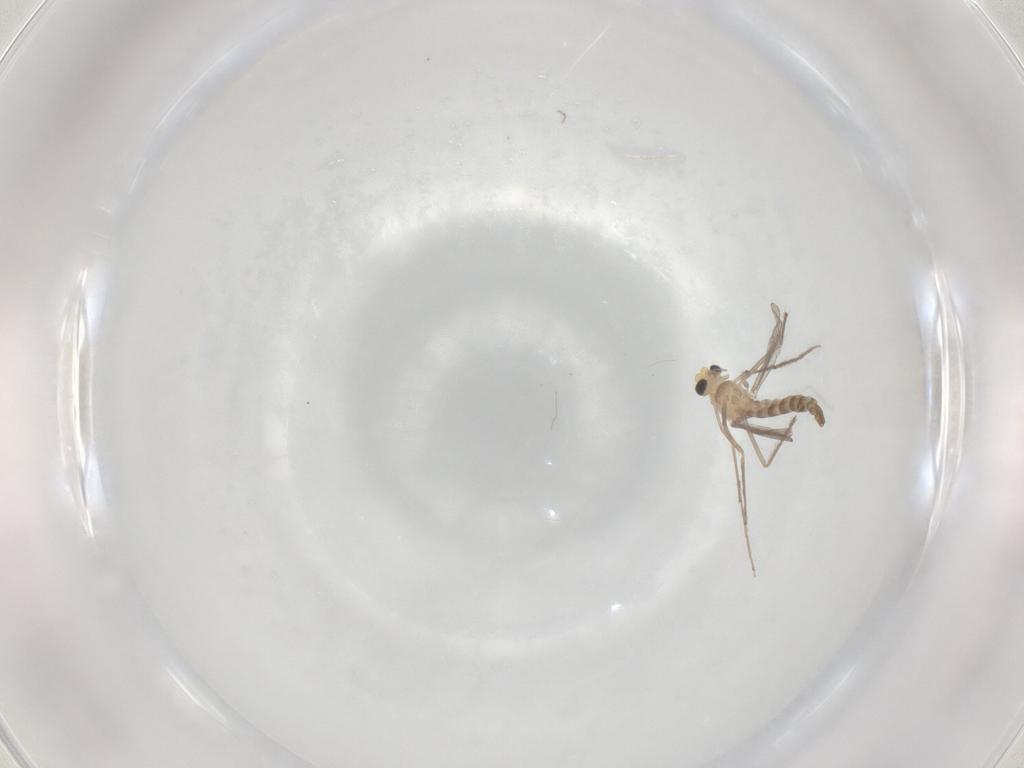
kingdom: Animalia
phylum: Arthropoda
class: Insecta
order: Diptera
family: Chironomidae
